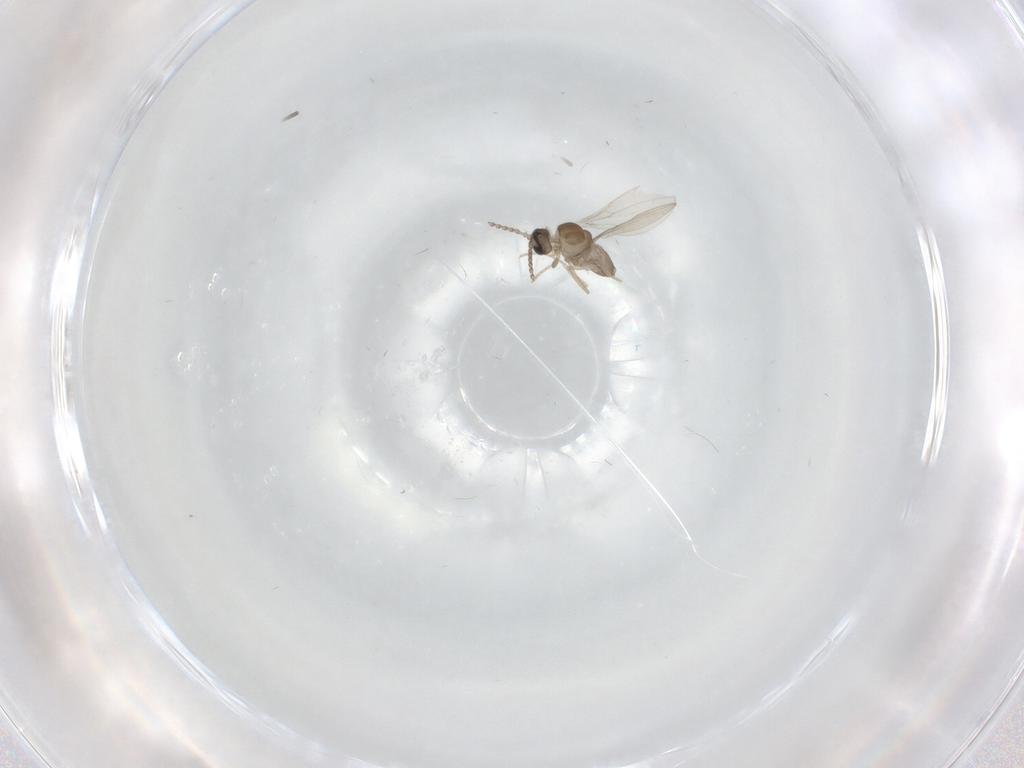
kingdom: Animalia
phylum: Arthropoda
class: Insecta
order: Diptera
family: Cecidomyiidae
